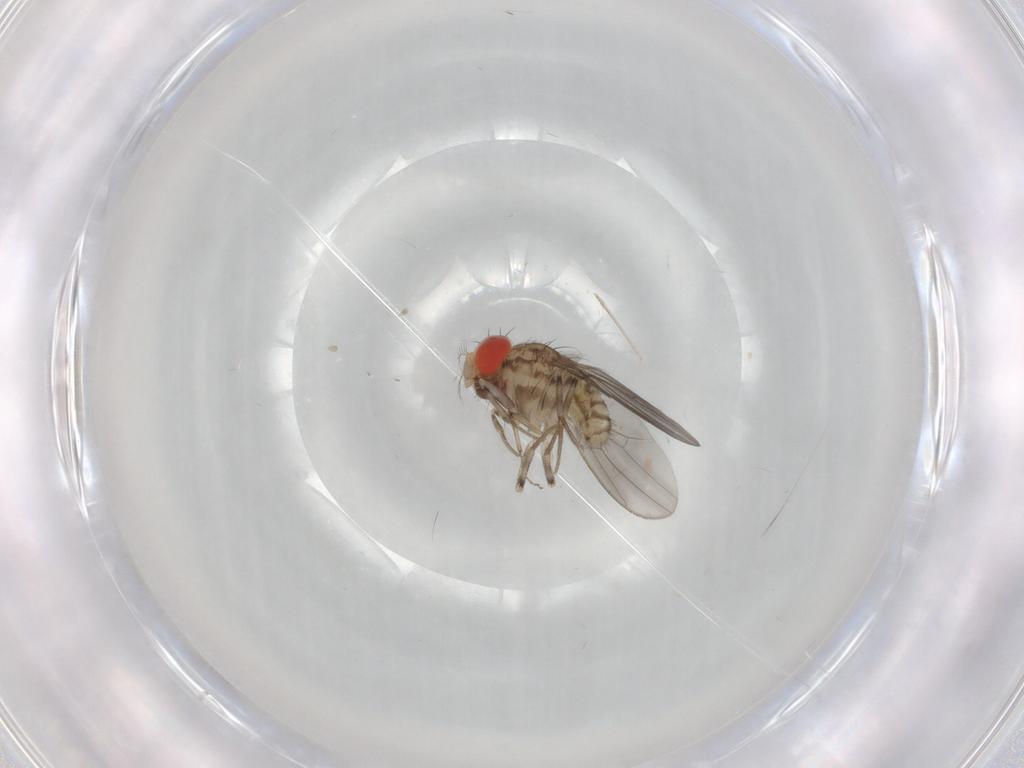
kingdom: Animalia
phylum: Arthropoda
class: Insecta
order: Diptera
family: Drosophilidae
